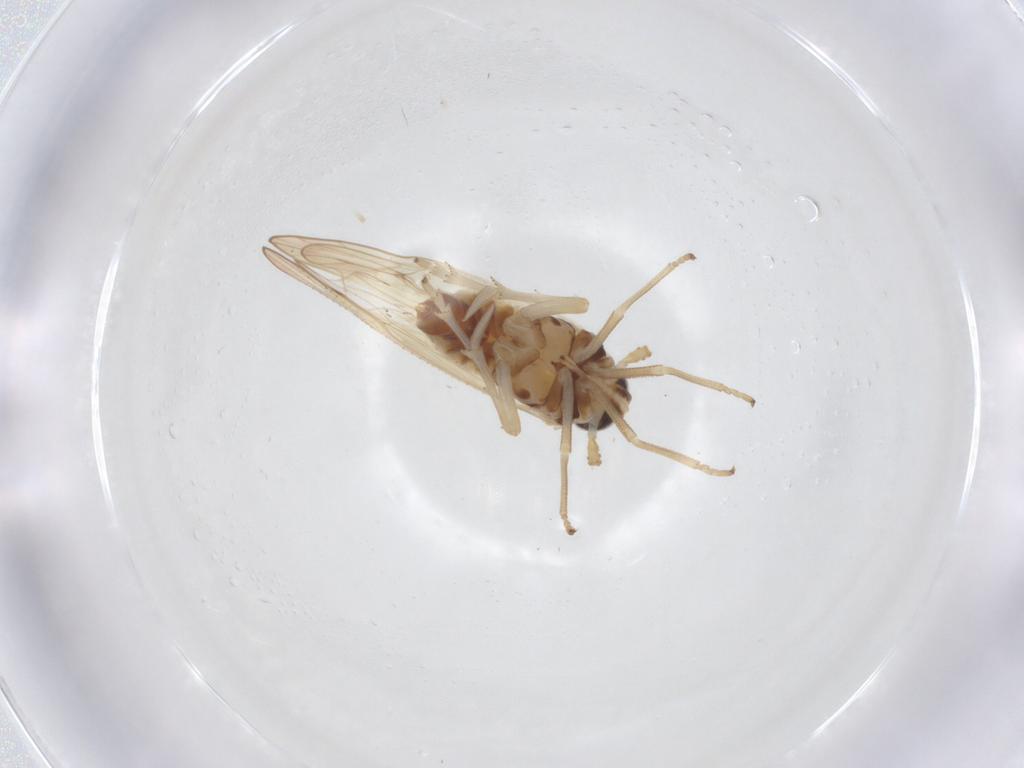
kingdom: Animalia
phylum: Arthropoda
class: Insecta
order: Hemiptera
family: Delphacidae
